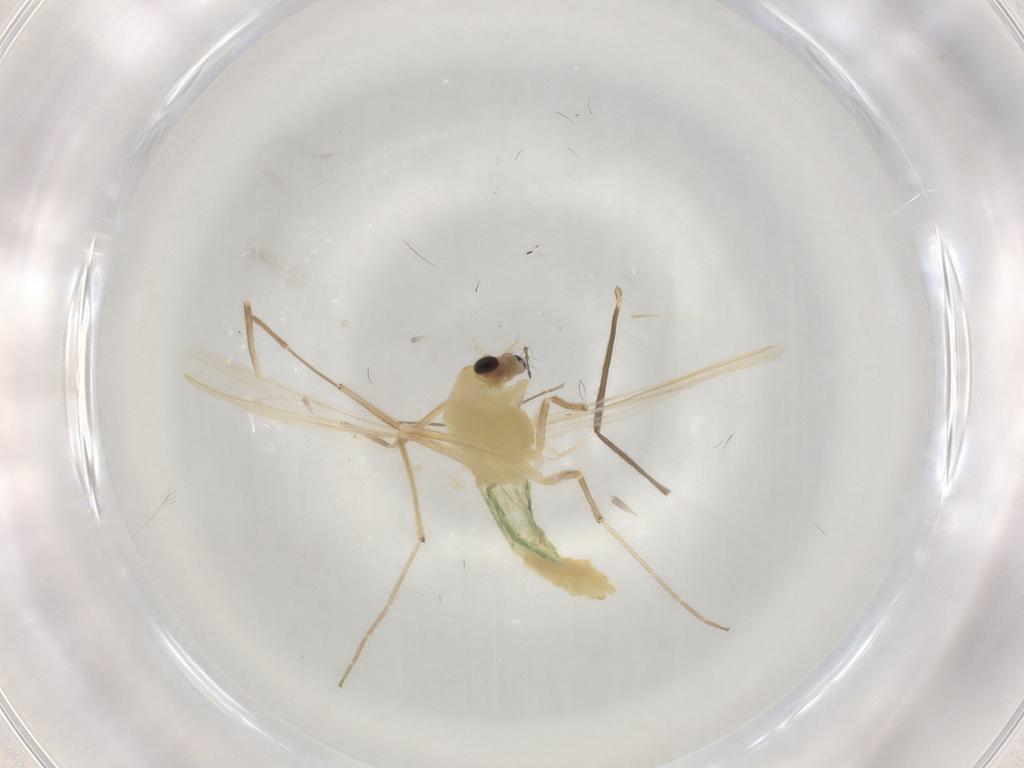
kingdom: Animalia
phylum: Arthropoda
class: Insecta
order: Diptera
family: Chironomidae
